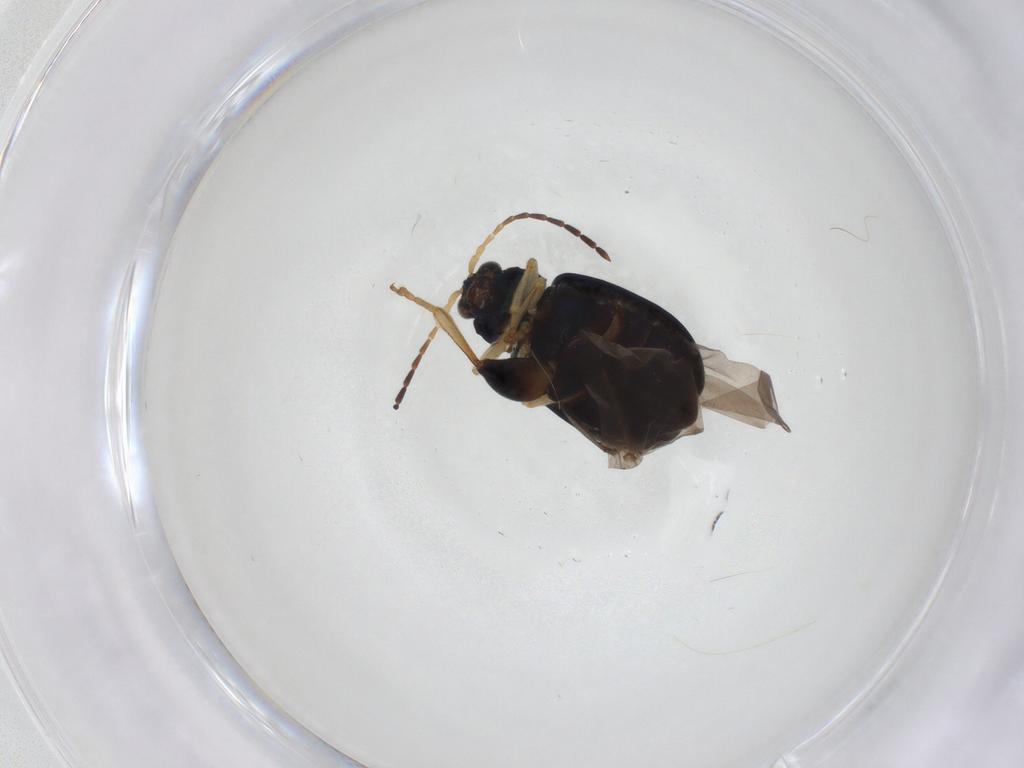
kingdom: Animalia
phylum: Arthropoda
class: Insecta
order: Coleoptera
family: Chrysomelidae
